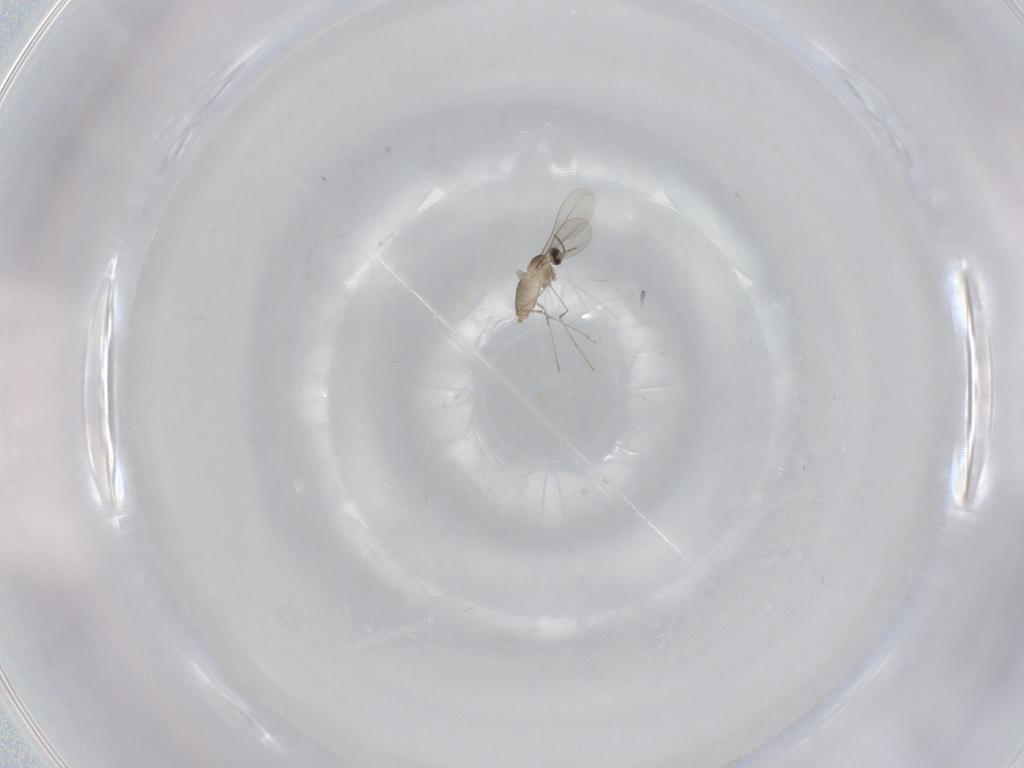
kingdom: Animalia
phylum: Arthropoda
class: Insecta
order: Diptera
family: Cecidomyiidae
